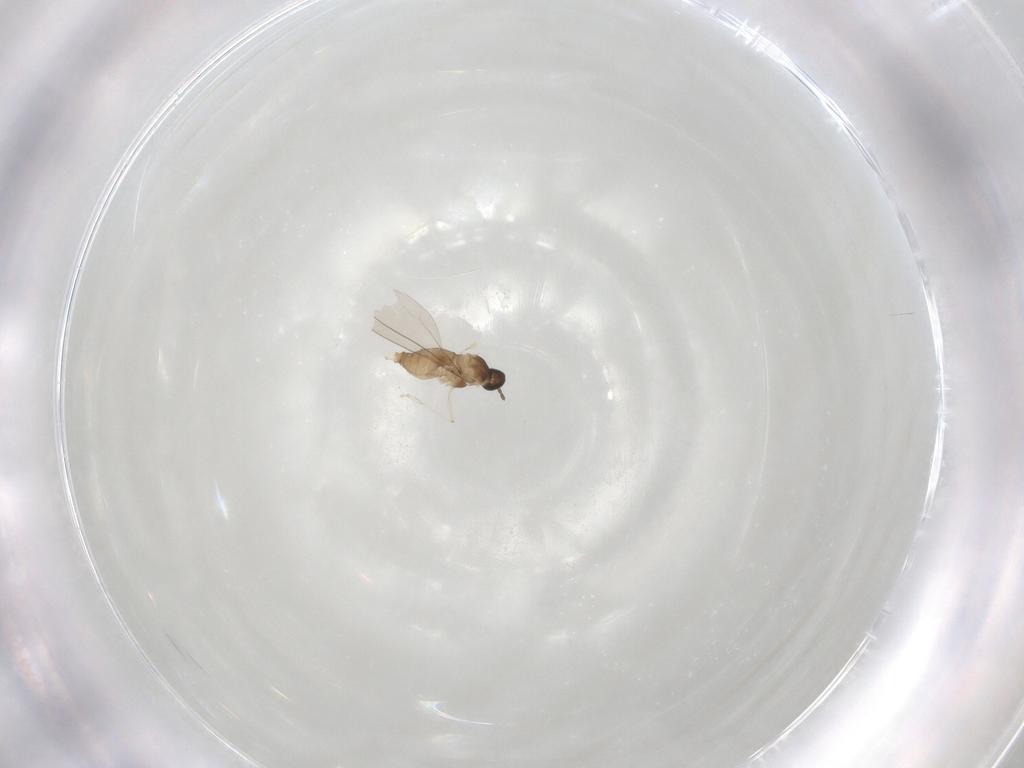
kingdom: Animalia
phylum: Arthropoda
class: Insecta
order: Diptera
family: Cecidomyiidae
